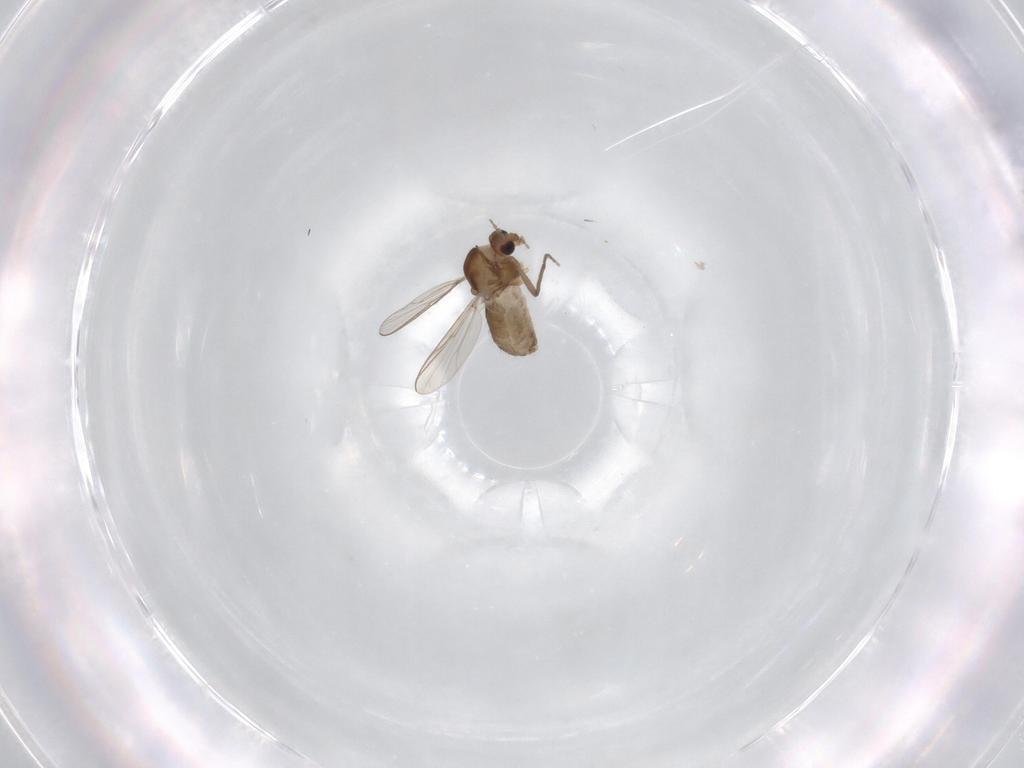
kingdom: Animalia
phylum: Arthropoda
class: Insecta
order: Diptera
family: Chironomidae
